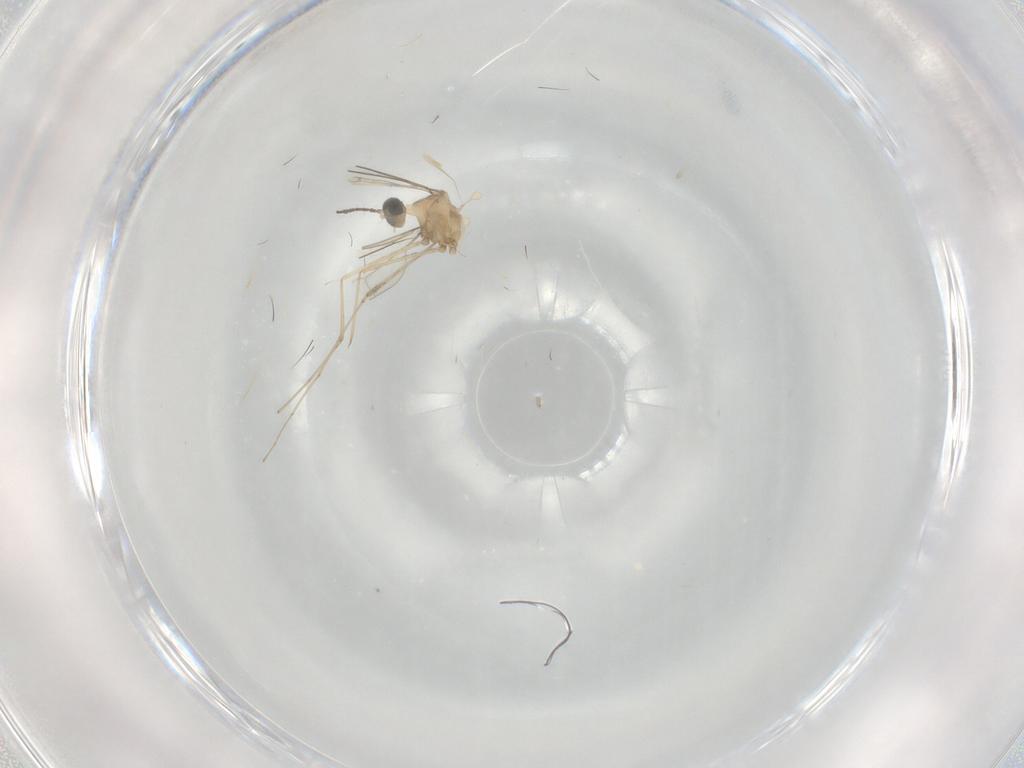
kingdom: Animalia
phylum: Arthropoda
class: Insecta
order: Diptera
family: Cecidomyiidae
